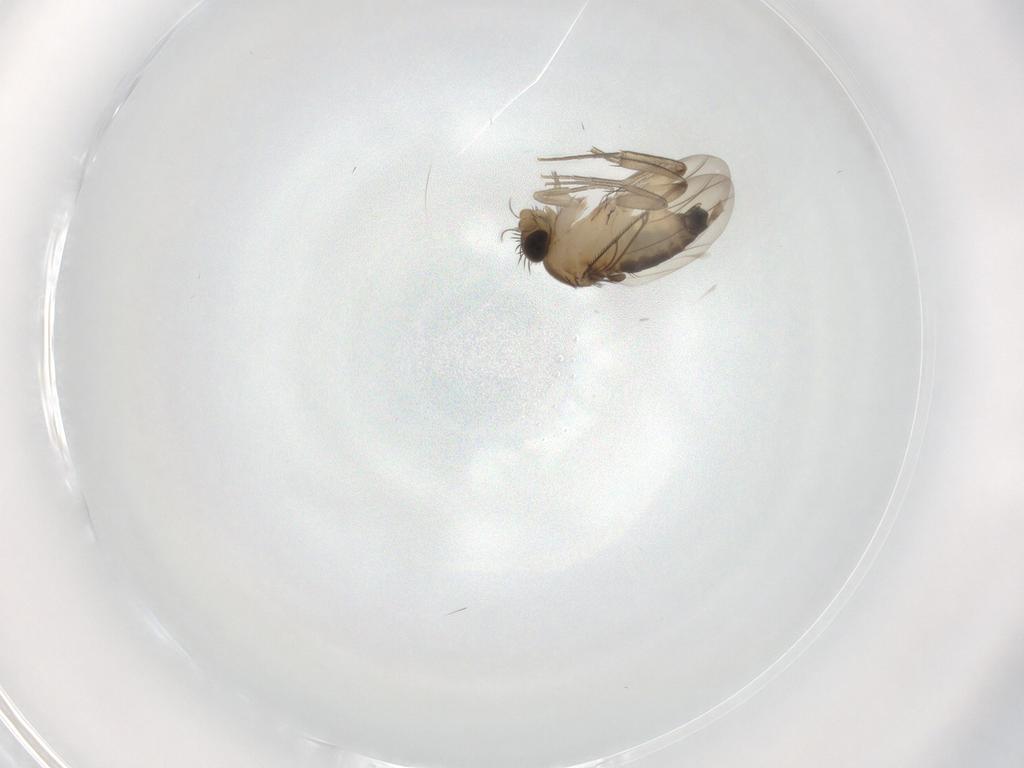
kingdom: Animalia
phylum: Arthropoda
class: Insecta
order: Diptera
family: Phoridae
